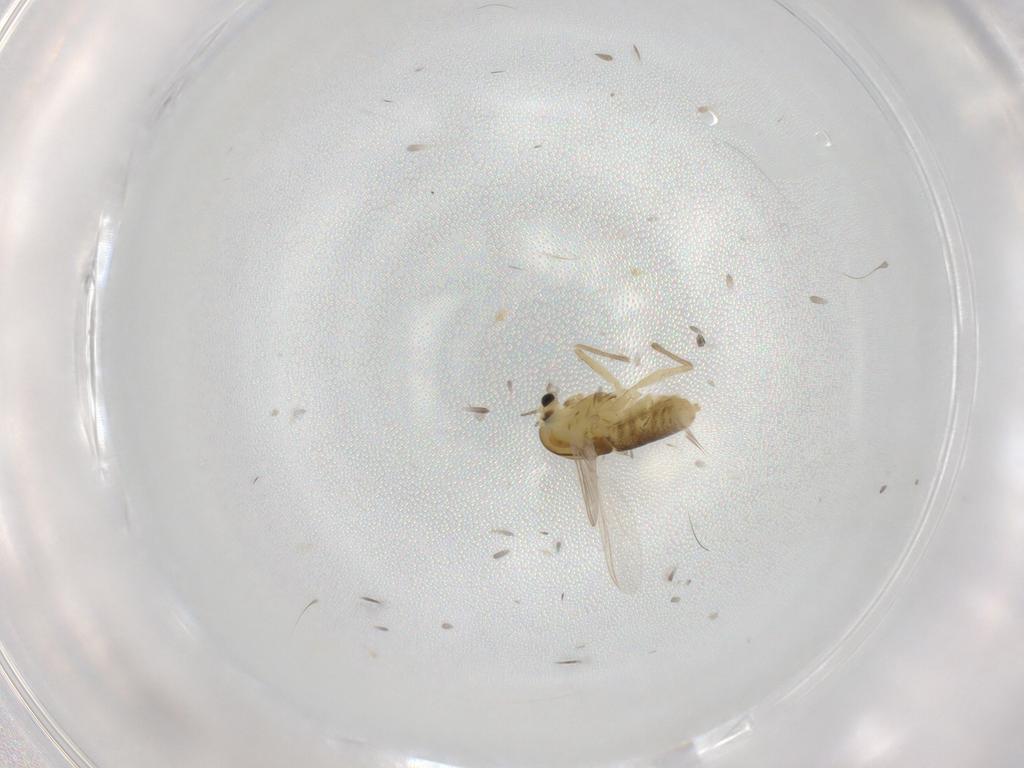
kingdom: Animalia
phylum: Arthropoda
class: Insecta
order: Diptera
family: Chironomidae
